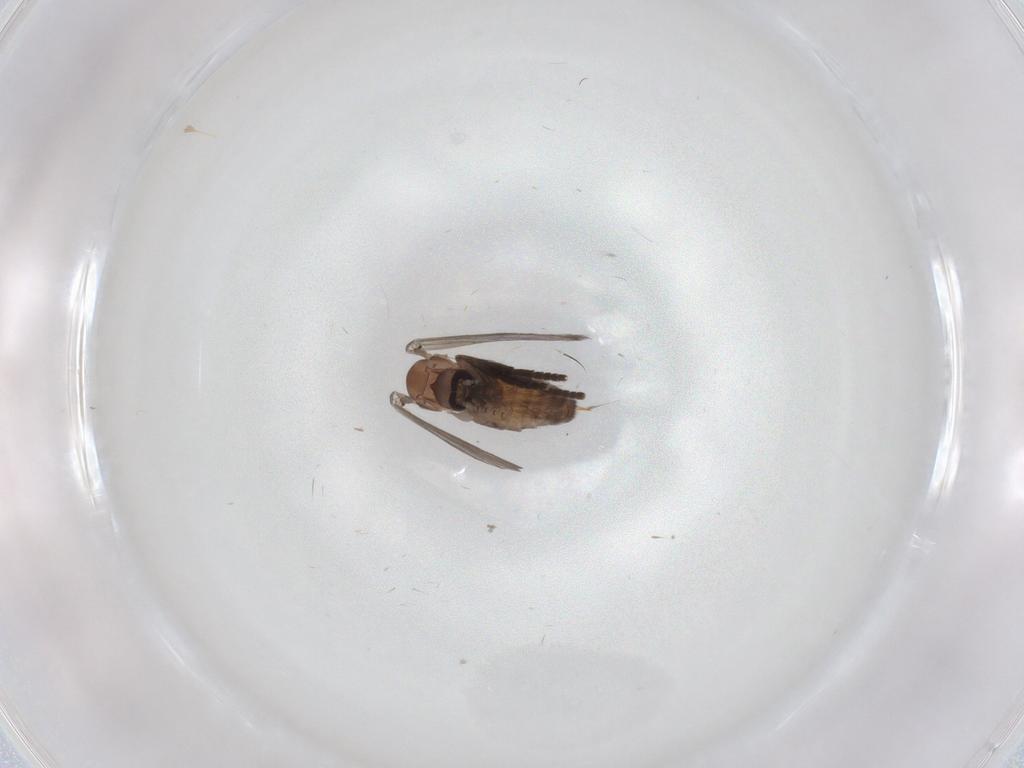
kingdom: Animalia
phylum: Arthropoda
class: Insecta
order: Diptera
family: Psychodidae
